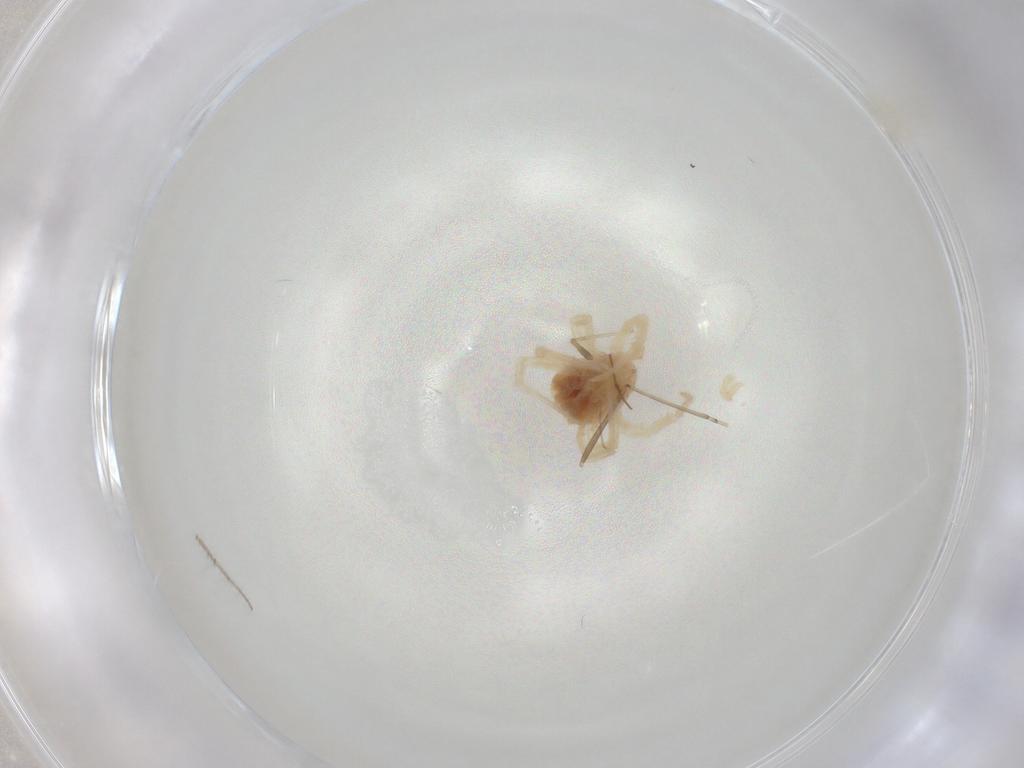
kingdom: Animalia
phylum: Arthropoda
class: Arachnida
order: Trombidiformes
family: Anystidae
